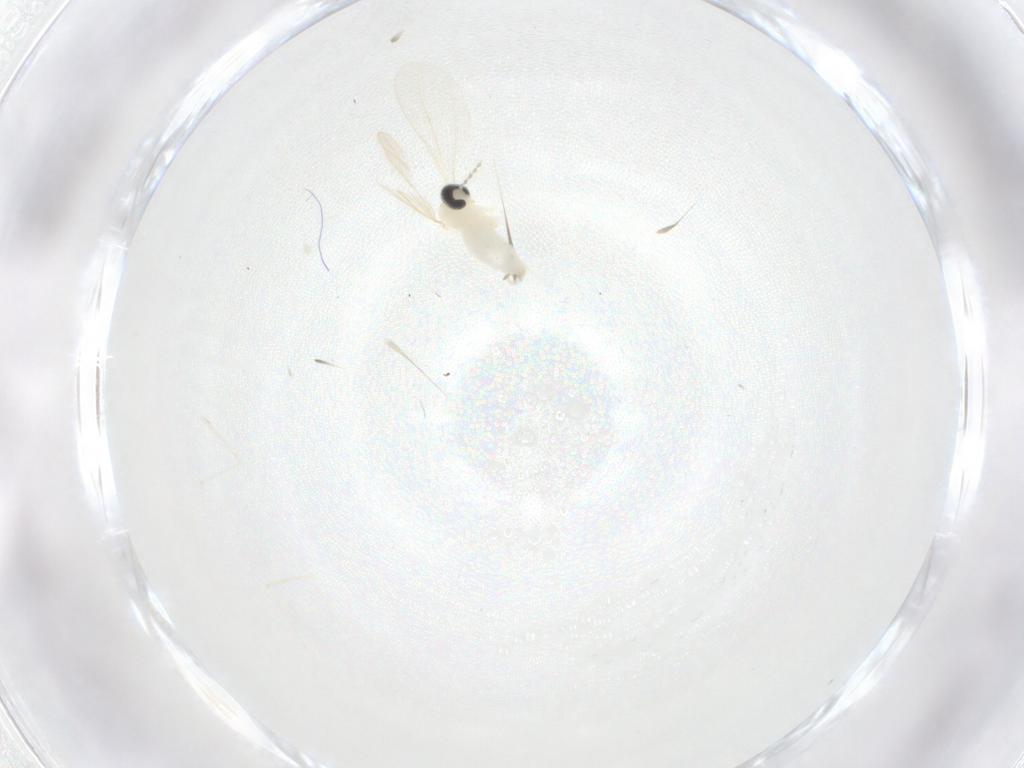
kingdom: Animalia
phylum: Arthropoda
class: Insecta
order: Diptera
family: Cecidomyiidae
